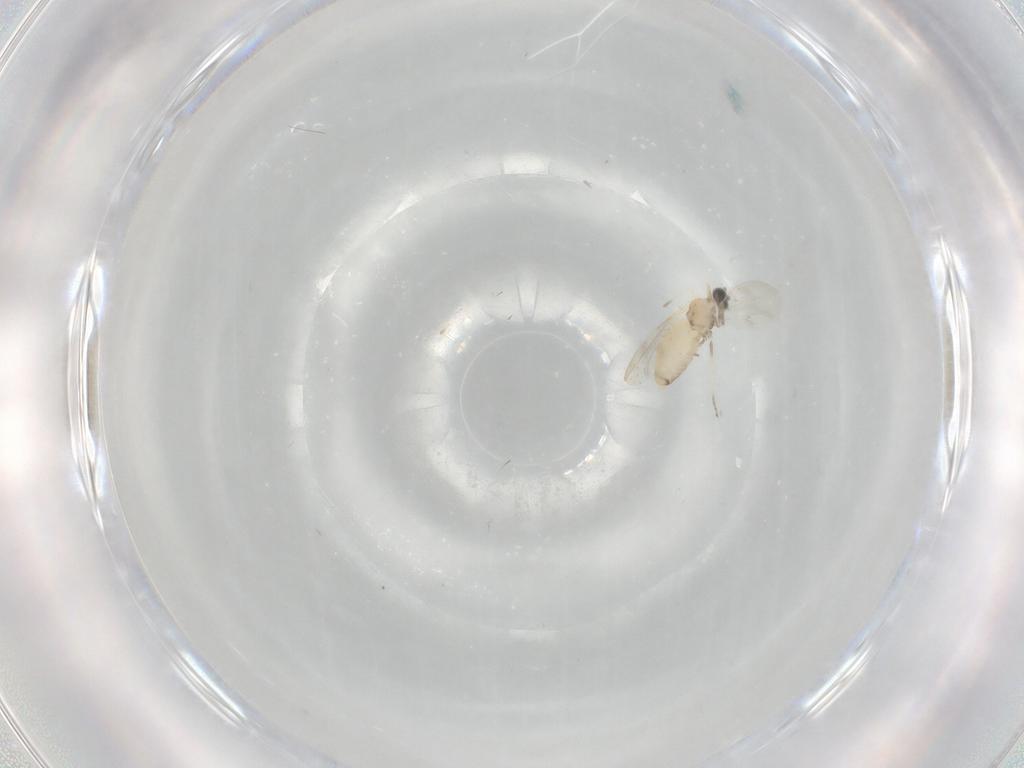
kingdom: Animalia
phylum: Arthropoda
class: Insecta
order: Diptera
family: Cecidomyiidae
